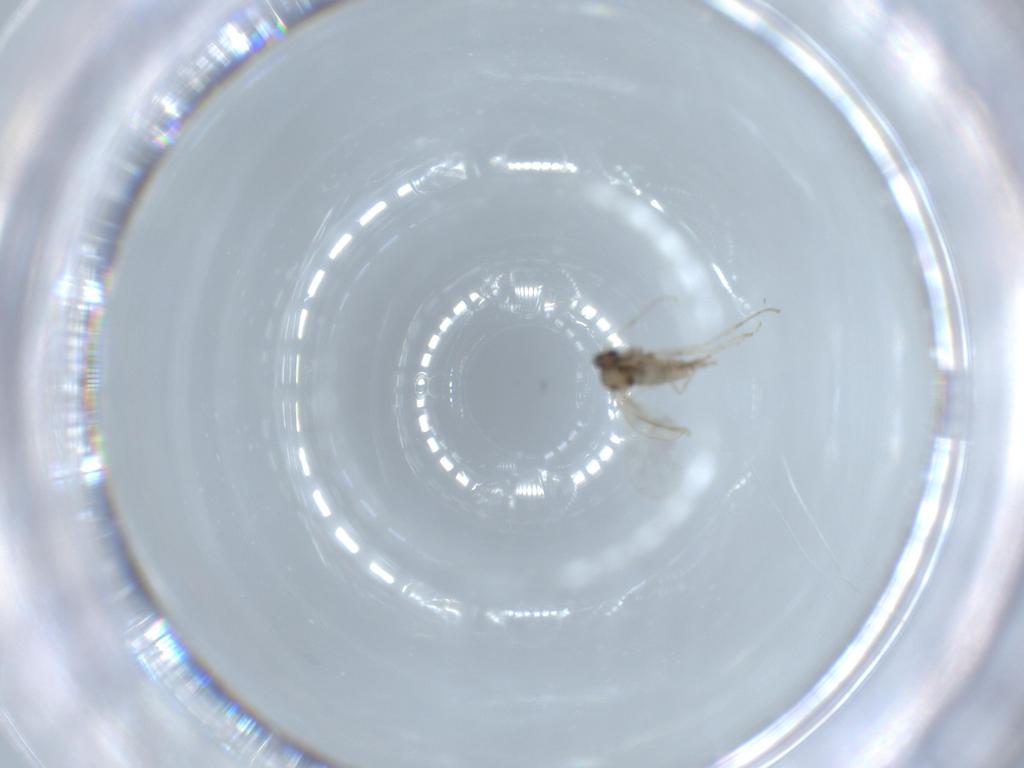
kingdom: Animalia
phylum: Arthropoda
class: Insecta
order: Diptera
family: Cecidomyiidae
